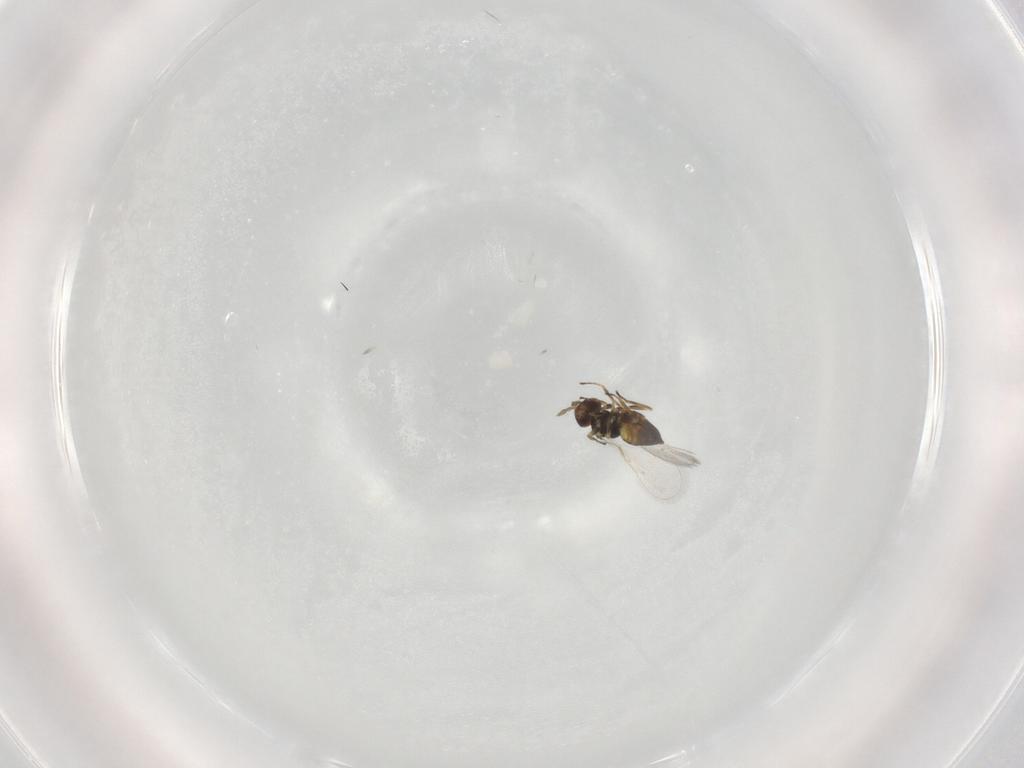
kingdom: Animalia
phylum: Arthropoda
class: Insecta
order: Hymenoptera
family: Eulophidae
